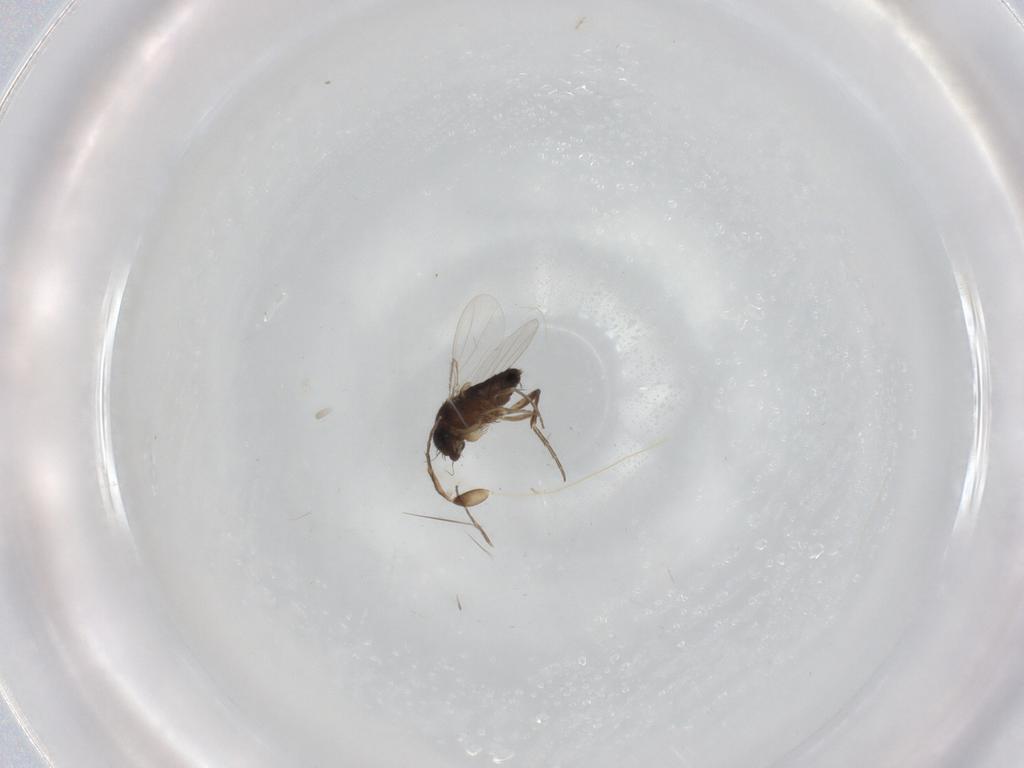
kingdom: Animalia
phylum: Arthropoda
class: Insecta
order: Diptera
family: Phoridae
